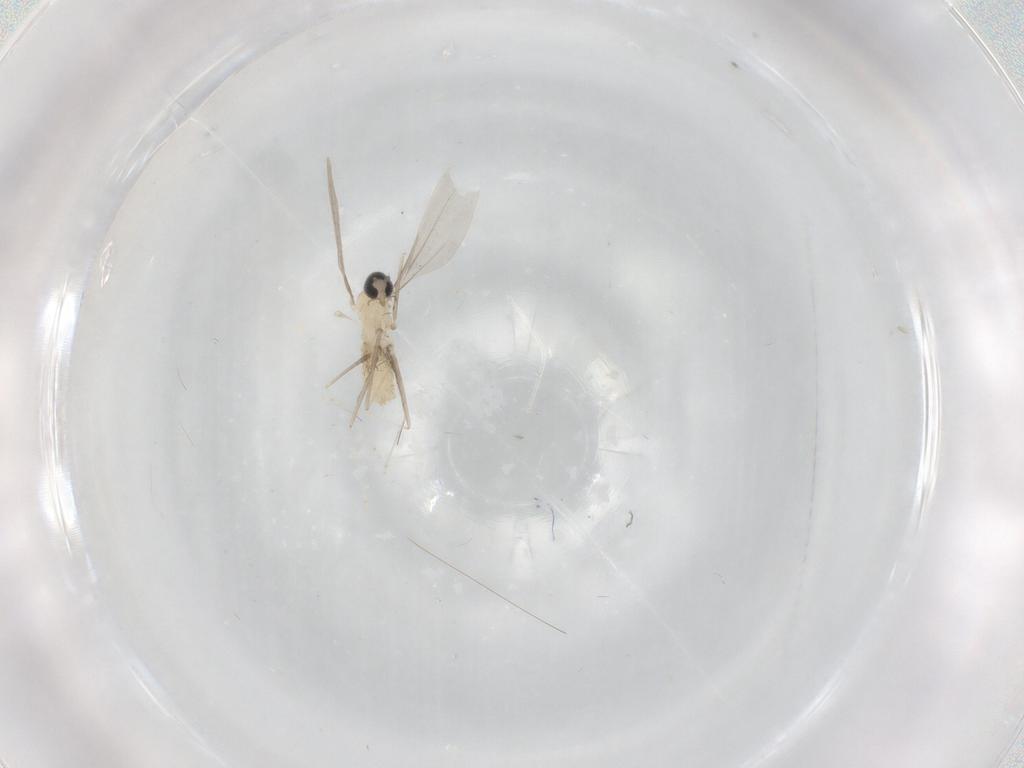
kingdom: Animalia
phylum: Arthropoda
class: Insecta
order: Diptera
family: Cecidomyiidae
